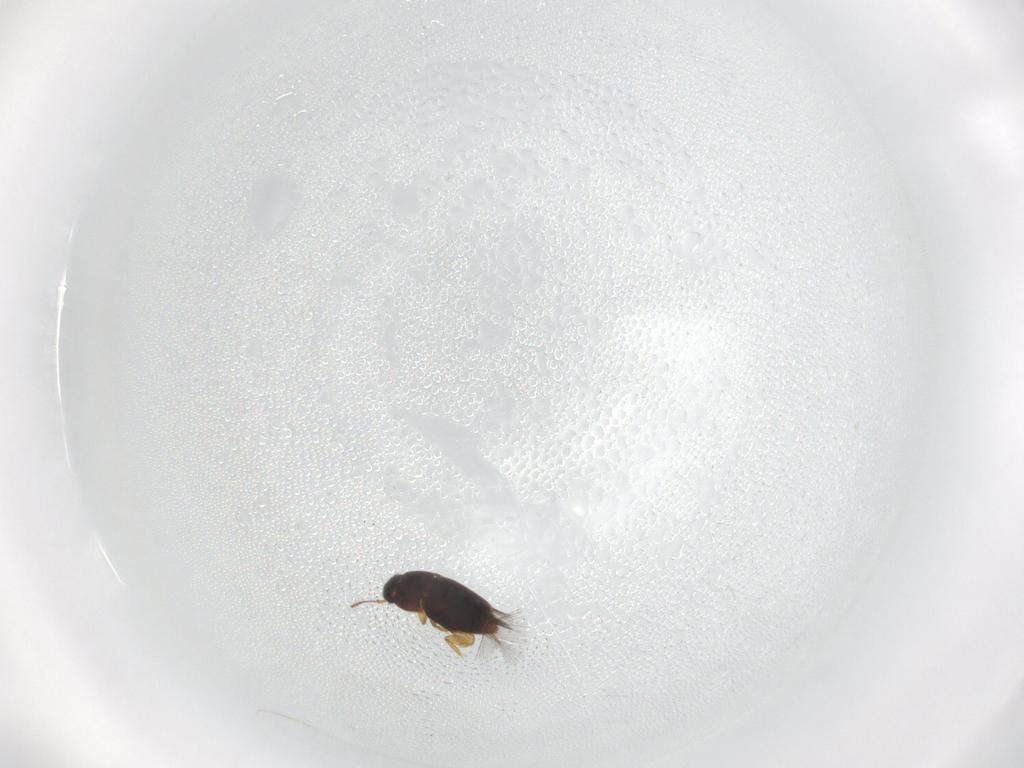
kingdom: Animalia
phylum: Arthropoda
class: Insecta
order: Coleoptera
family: Ptiliidae
